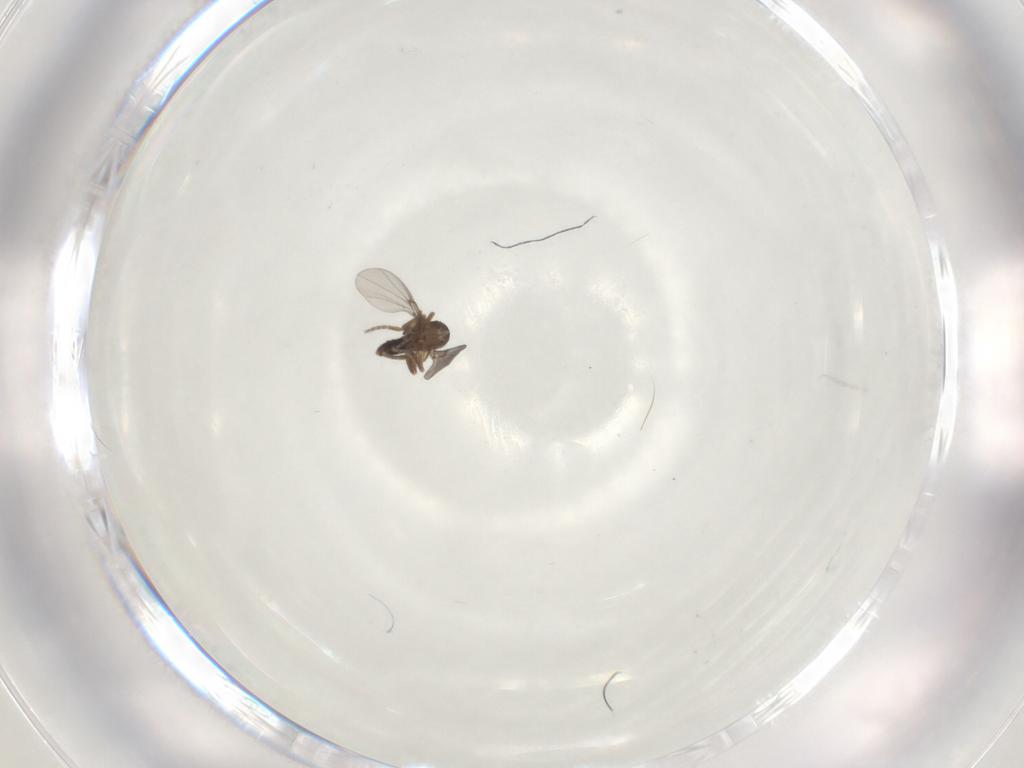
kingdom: Animalia
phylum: Arthropoda
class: Insecta
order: Diptera
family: Phoridae
